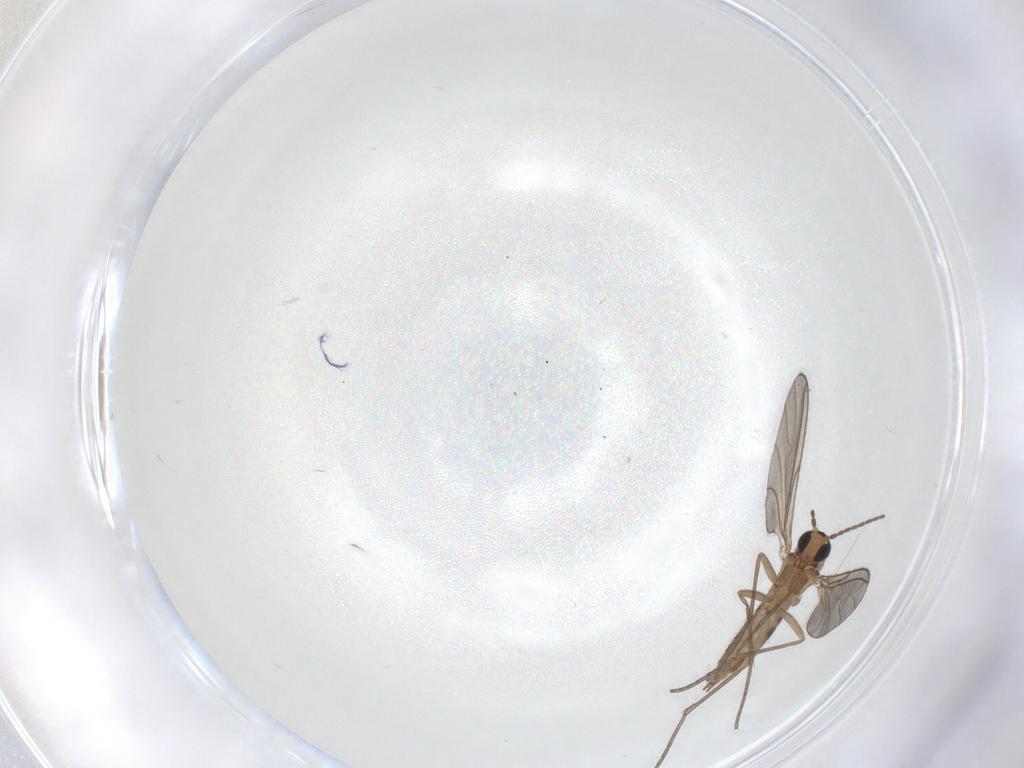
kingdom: Animalia
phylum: Arthropoda
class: Insecta
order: Diptera
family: Sciaridae
